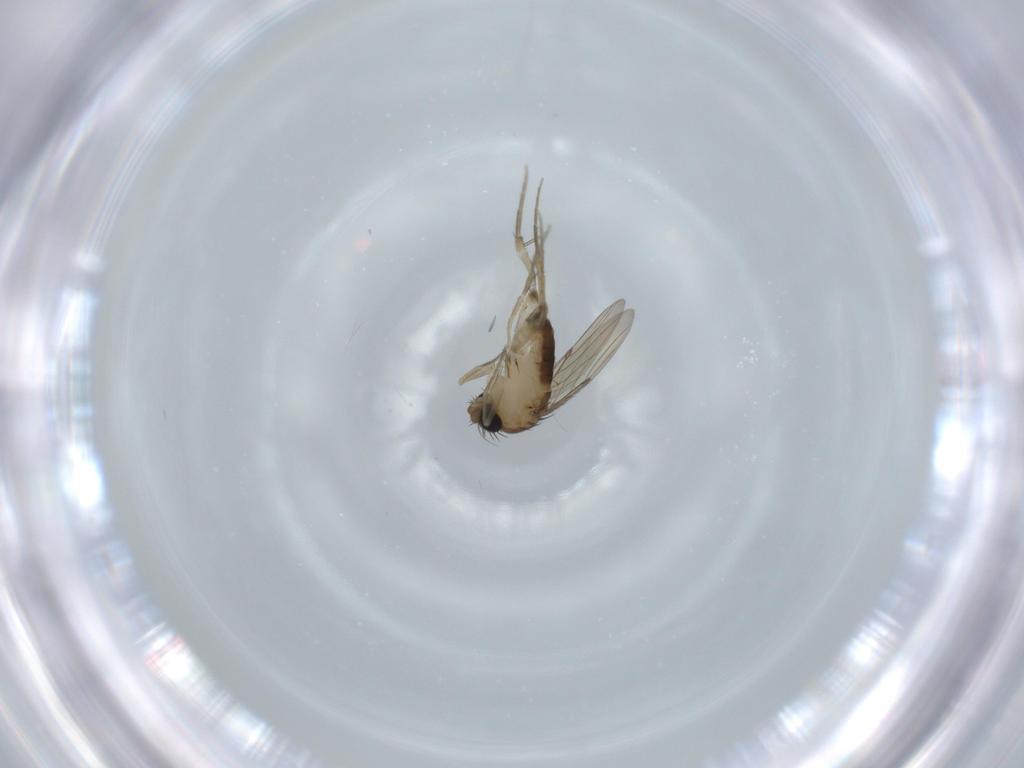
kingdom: Animalia
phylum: Arthropoda
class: Insecta
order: Diptera
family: Phoridae
